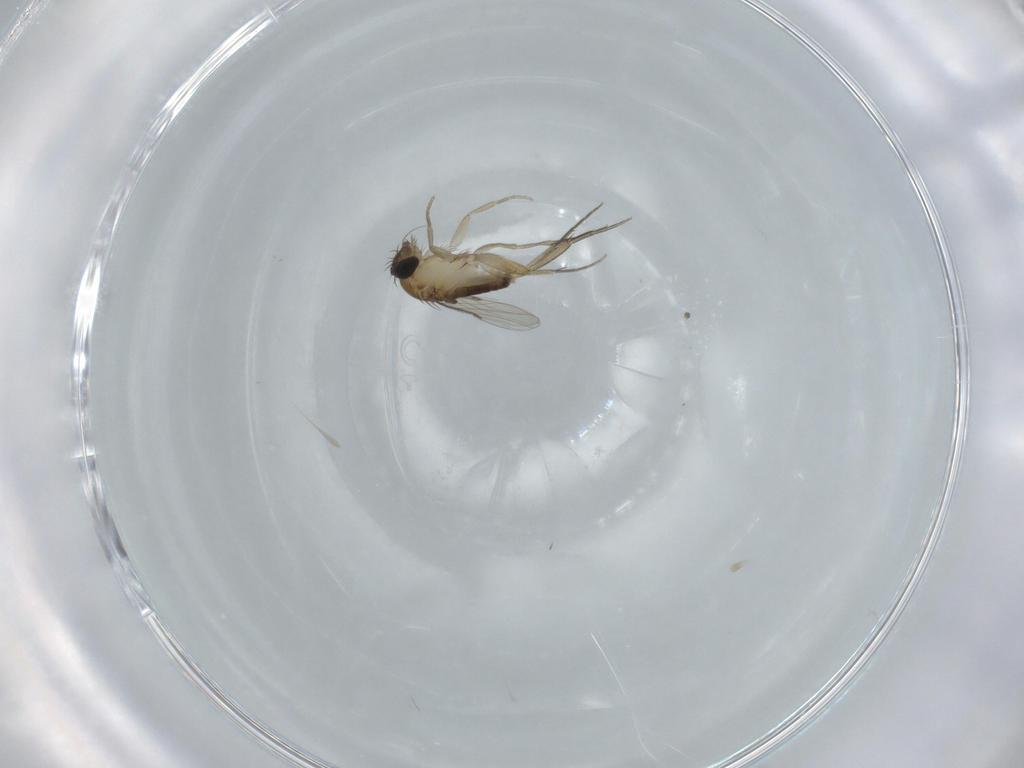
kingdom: Animalia
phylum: Arthropoda
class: Insecta
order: Diptera
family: Phoridae
